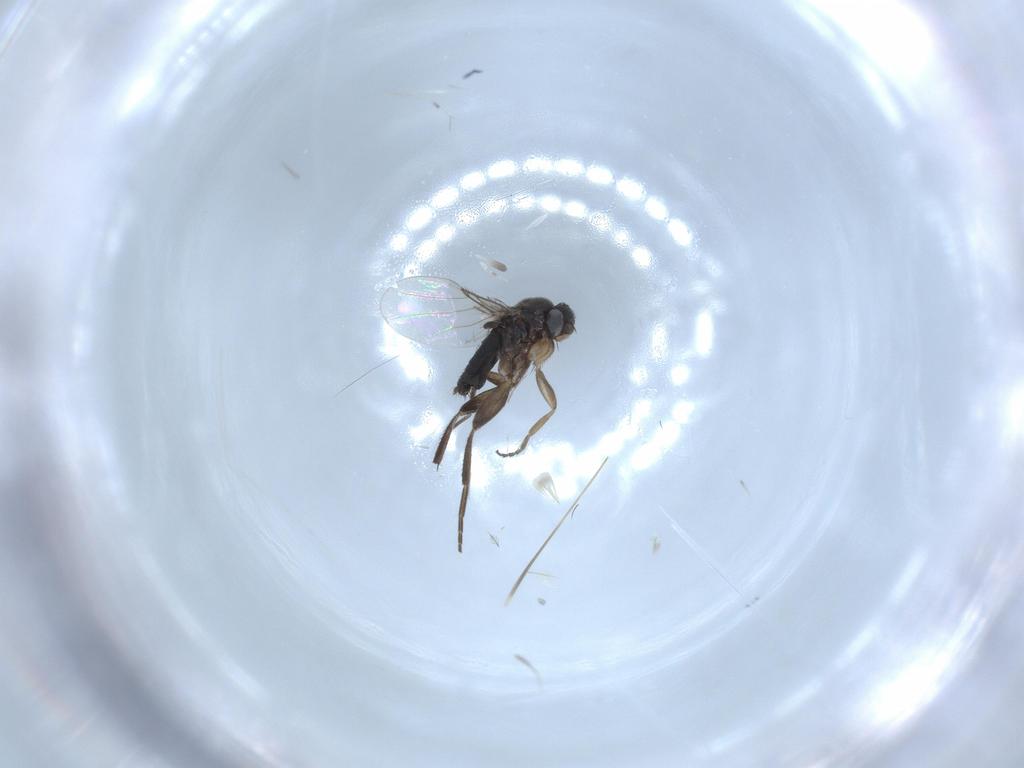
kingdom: Animalia
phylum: Arthropoda
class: Insecta
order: Diptera
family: Phoridae
